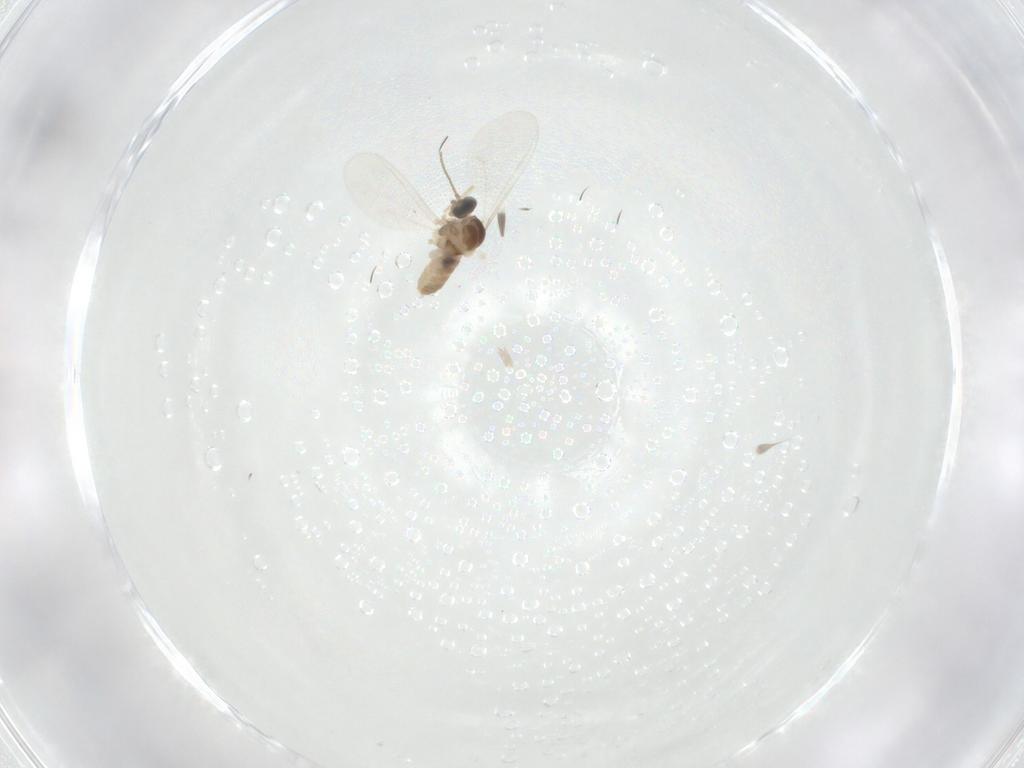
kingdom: Animalia
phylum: Arthropoda
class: Insecta
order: Diptera
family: Cecidomyiidae
